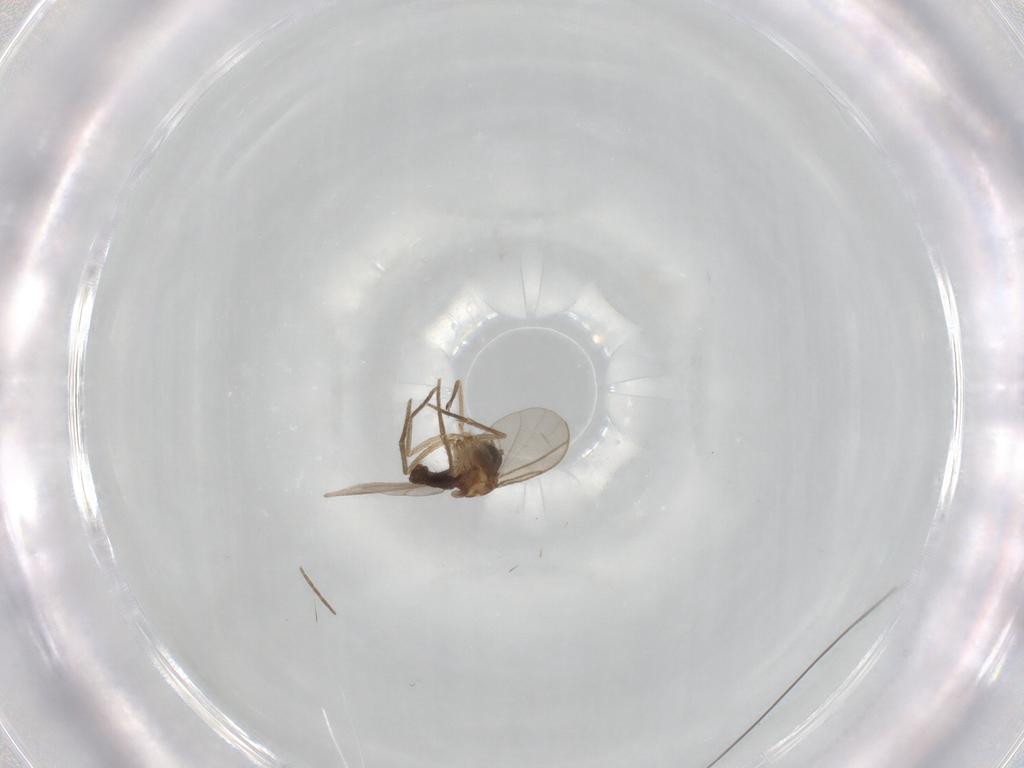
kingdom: Animalia
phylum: Arthropoda
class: Insecta
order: Diptera
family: Sciaridae
